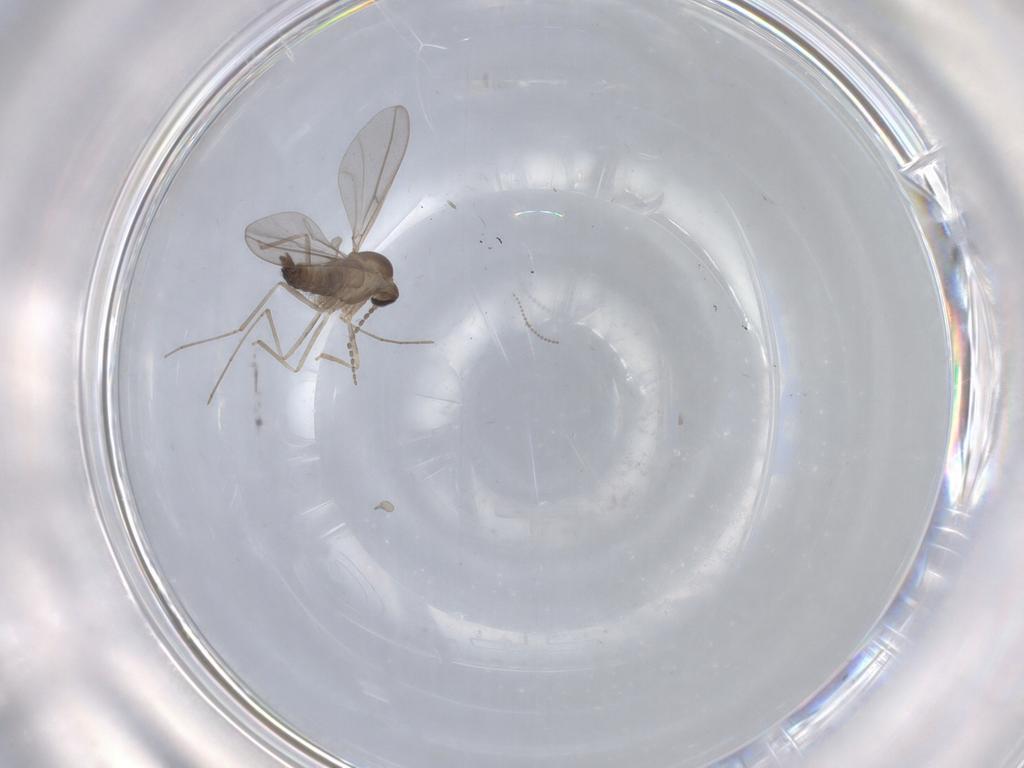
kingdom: Animalia
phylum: Arthropoda
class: Insecta
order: Diptera
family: Cecidomyiidae
